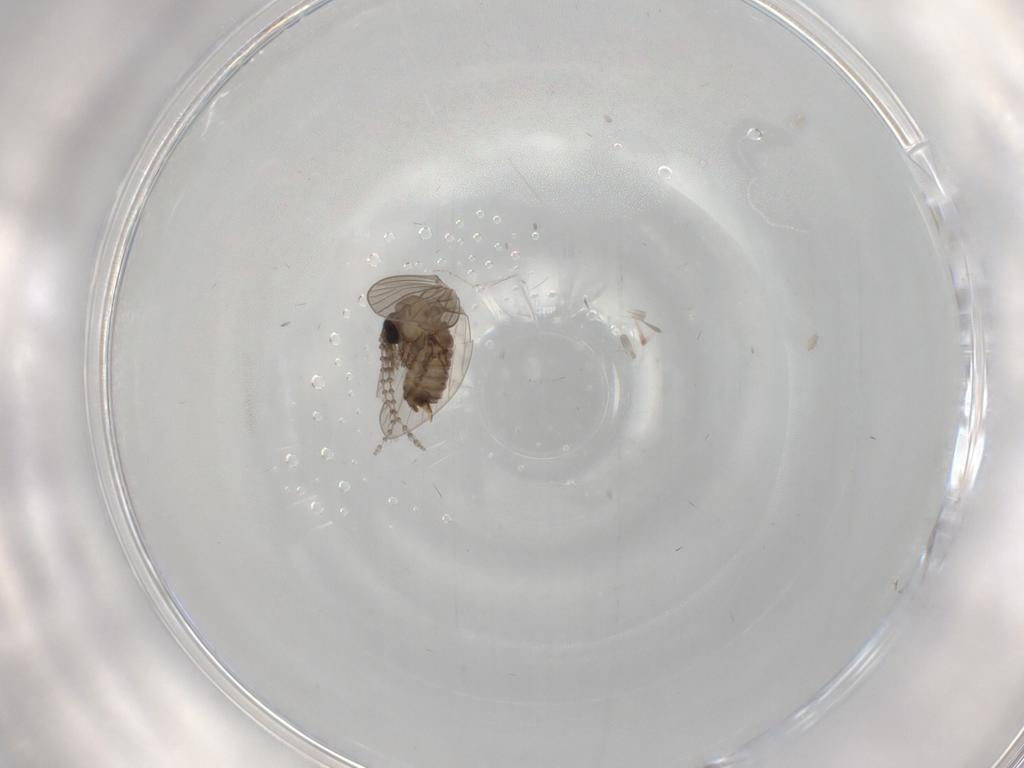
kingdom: Animalia
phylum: Arthropoda
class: Insecta
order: Diptera
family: Psychodidae
